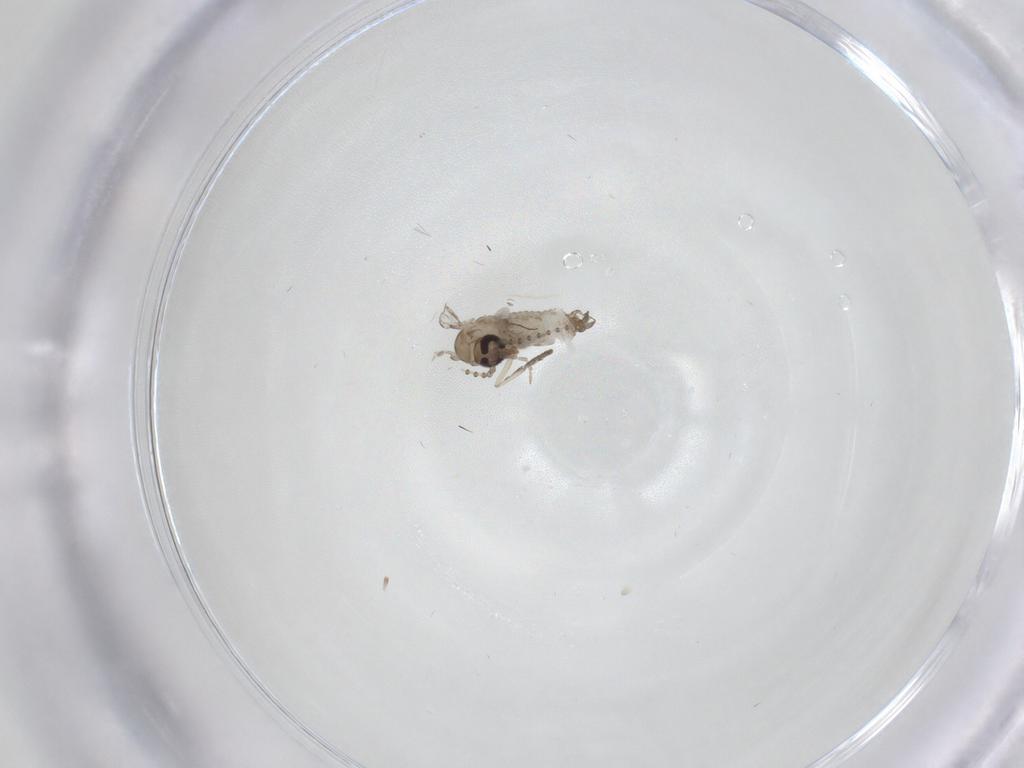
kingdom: Animalia
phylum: Arthropoda
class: Insecta
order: Diptera
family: Psychodidae
